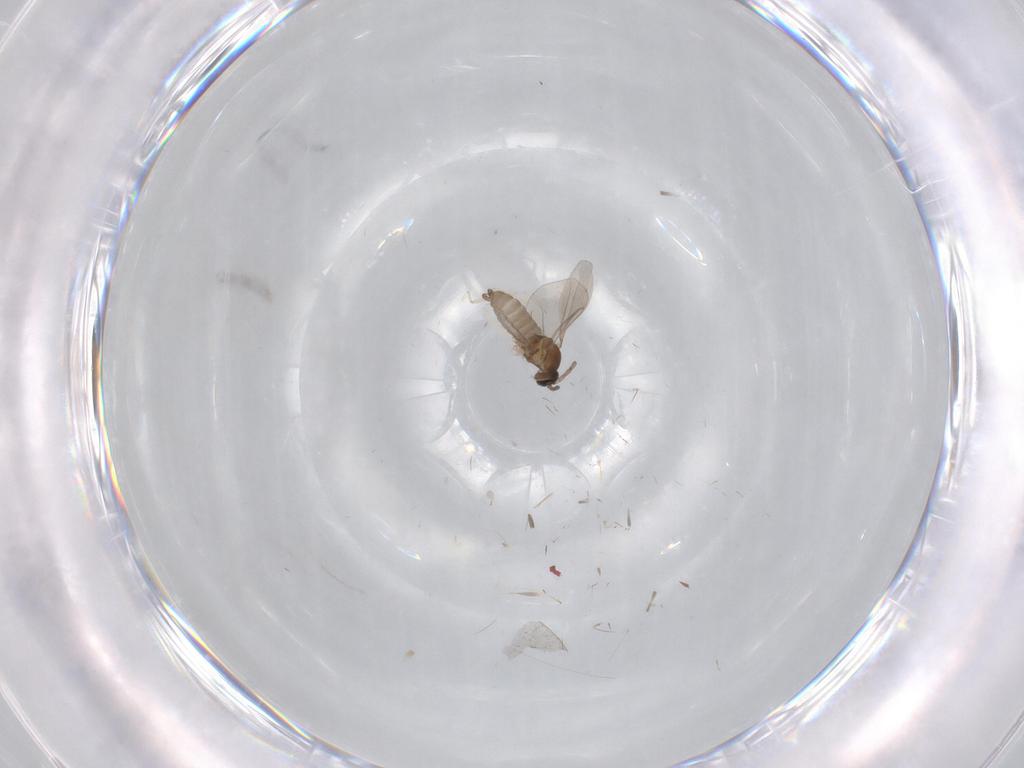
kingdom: Animalia
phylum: Arthropoda
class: Insecta
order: Diptera
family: Cecidomyiidae
